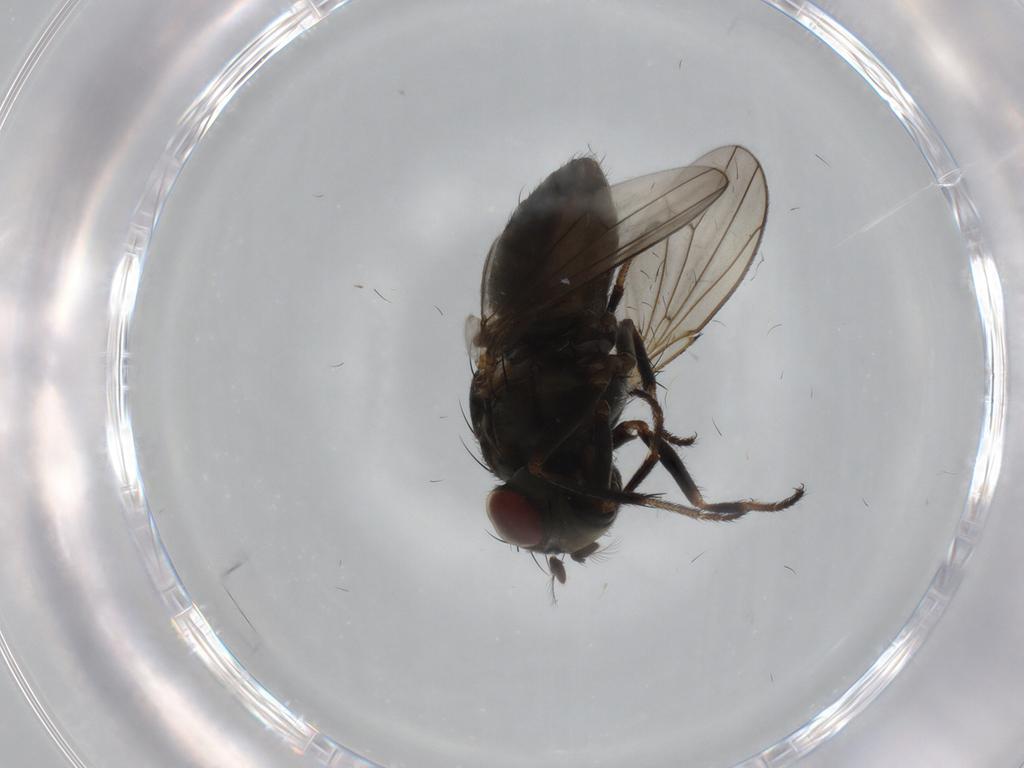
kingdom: Animalia
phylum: Arthropoda
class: Insecta
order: Diptera
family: Ephydridae
